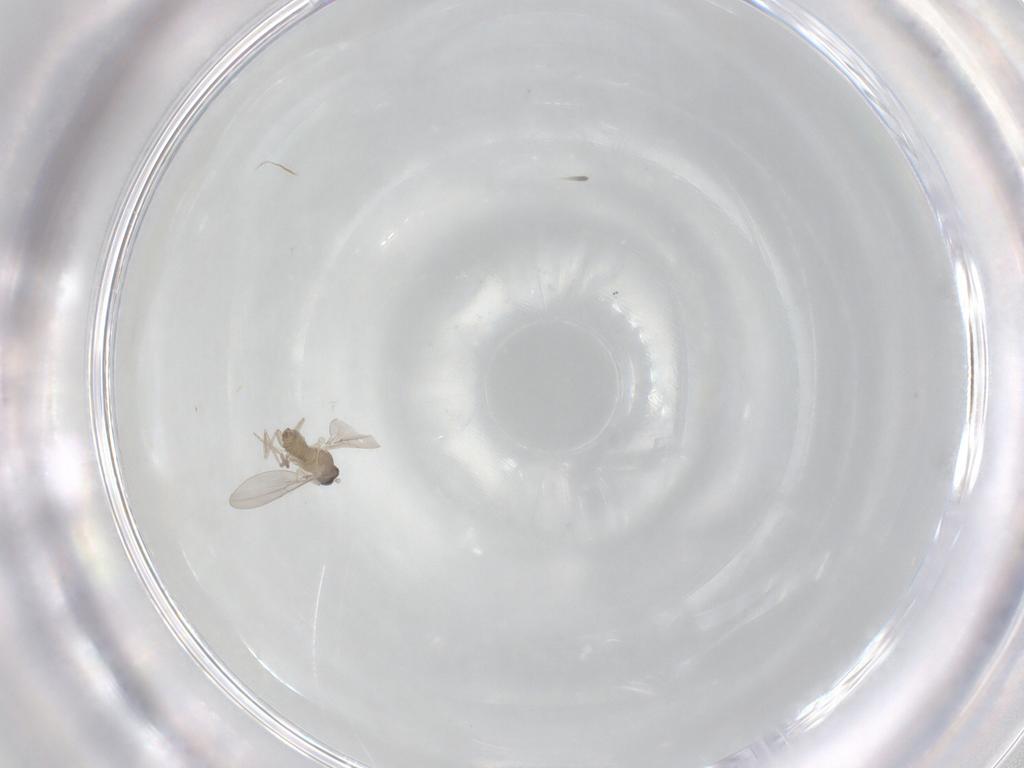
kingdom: Animalia
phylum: Arthropoda
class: Insecta
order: Diptera
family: Cecidomyiidae
